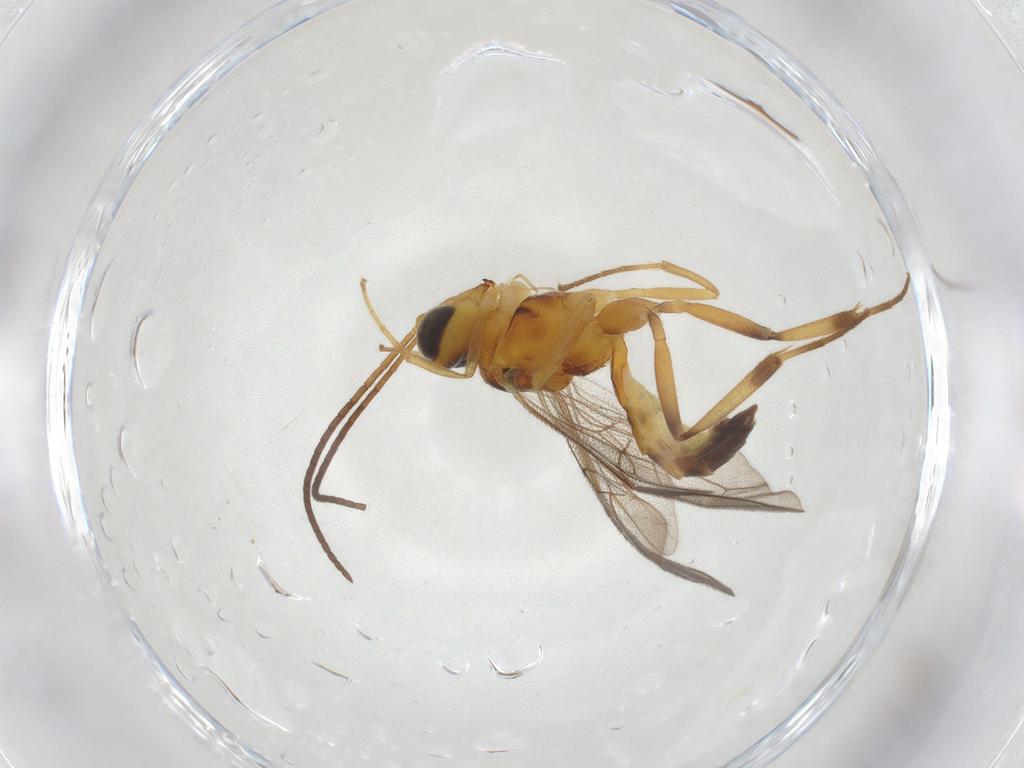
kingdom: Animalia
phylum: Arthropoda
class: Insecta
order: Hymenoptera
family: Ichneumonidae
